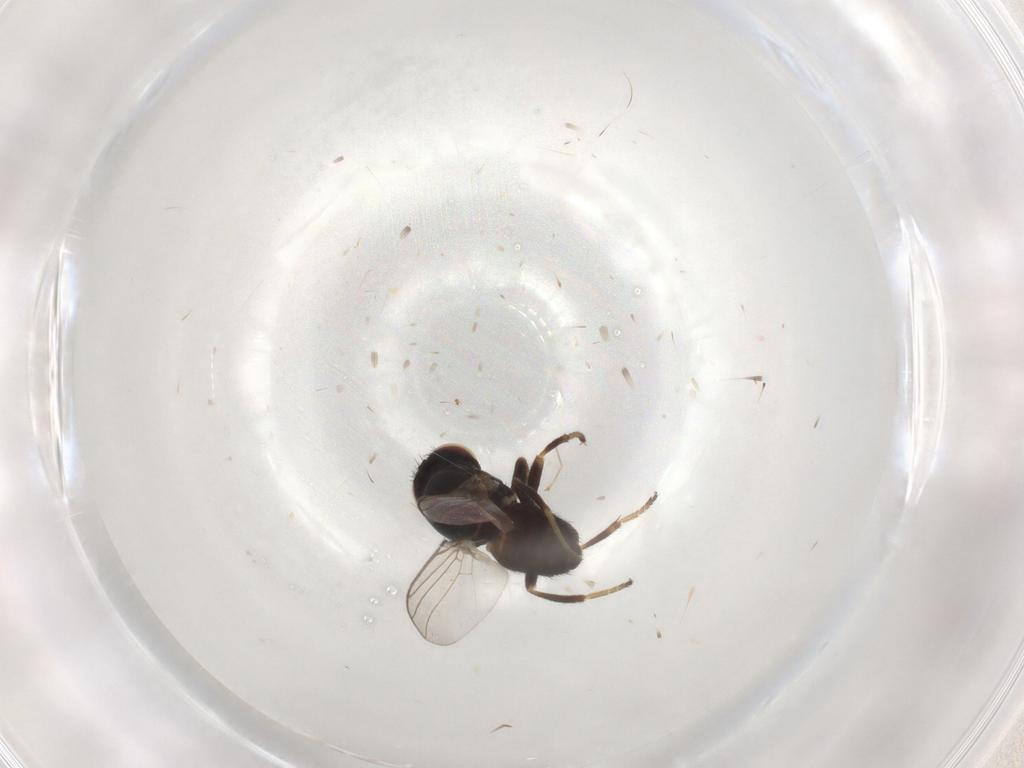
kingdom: Animalia
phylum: Arthropoda
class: Insecta
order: Diptera
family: Chloropidae
